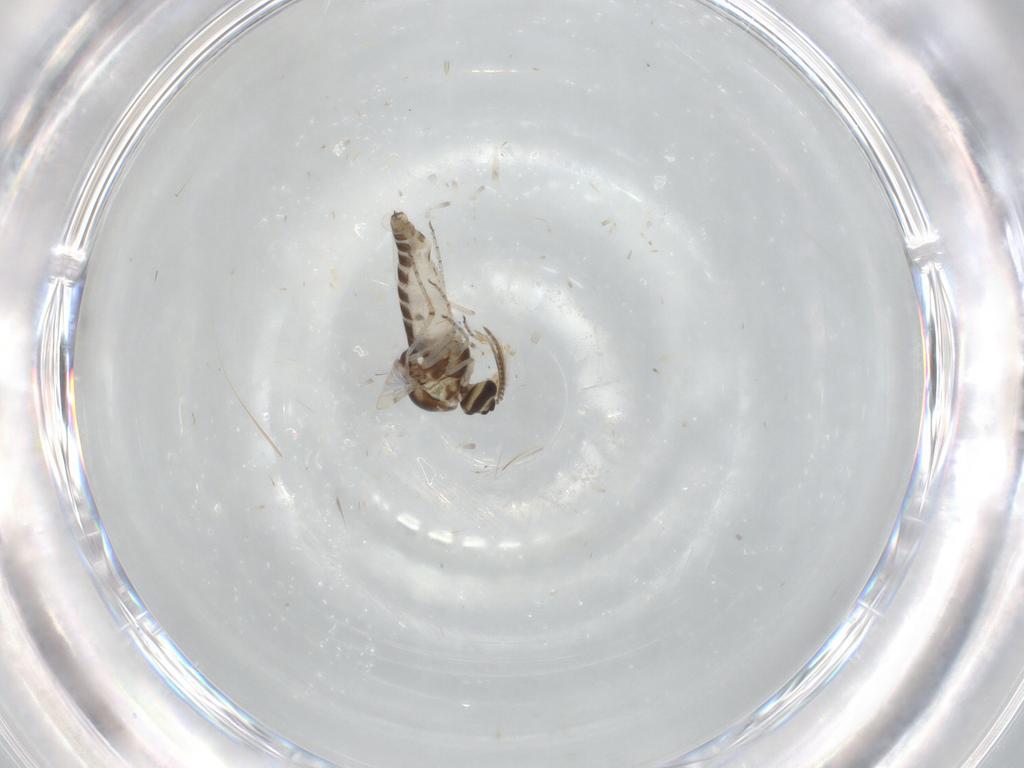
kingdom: Animalia
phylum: Arthropoda
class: Insecta
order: Diptera
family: Ceratopogonidae
